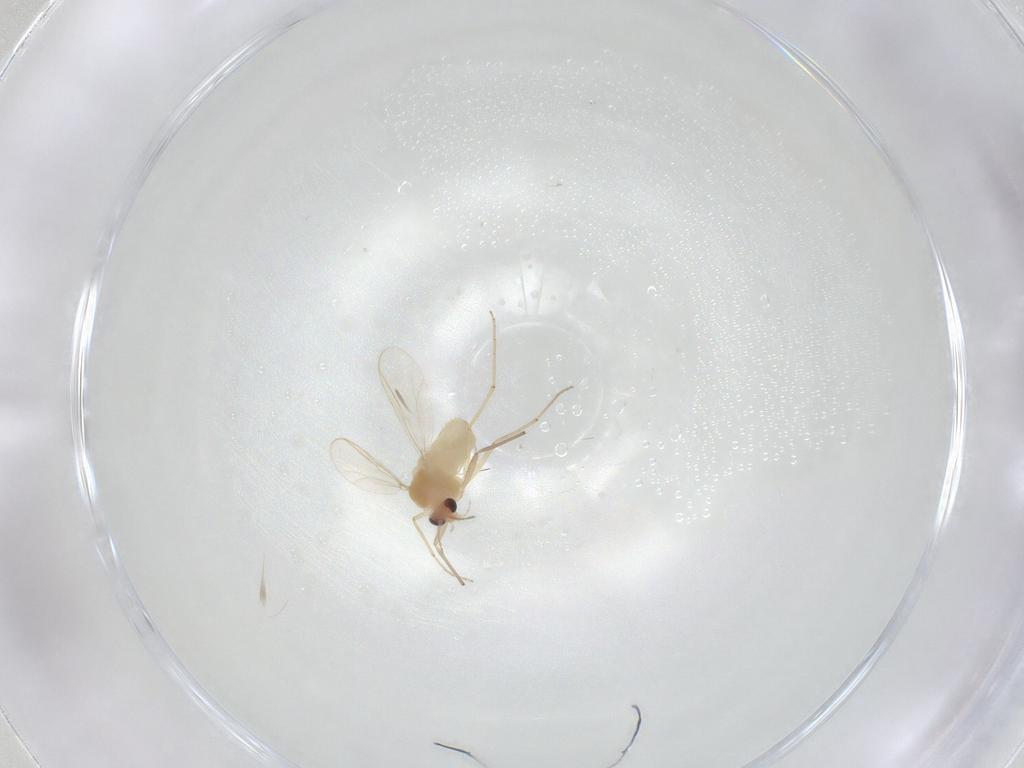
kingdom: Animalia
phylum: Arthropoda
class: Insecta
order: Diptera
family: Chironomidae
